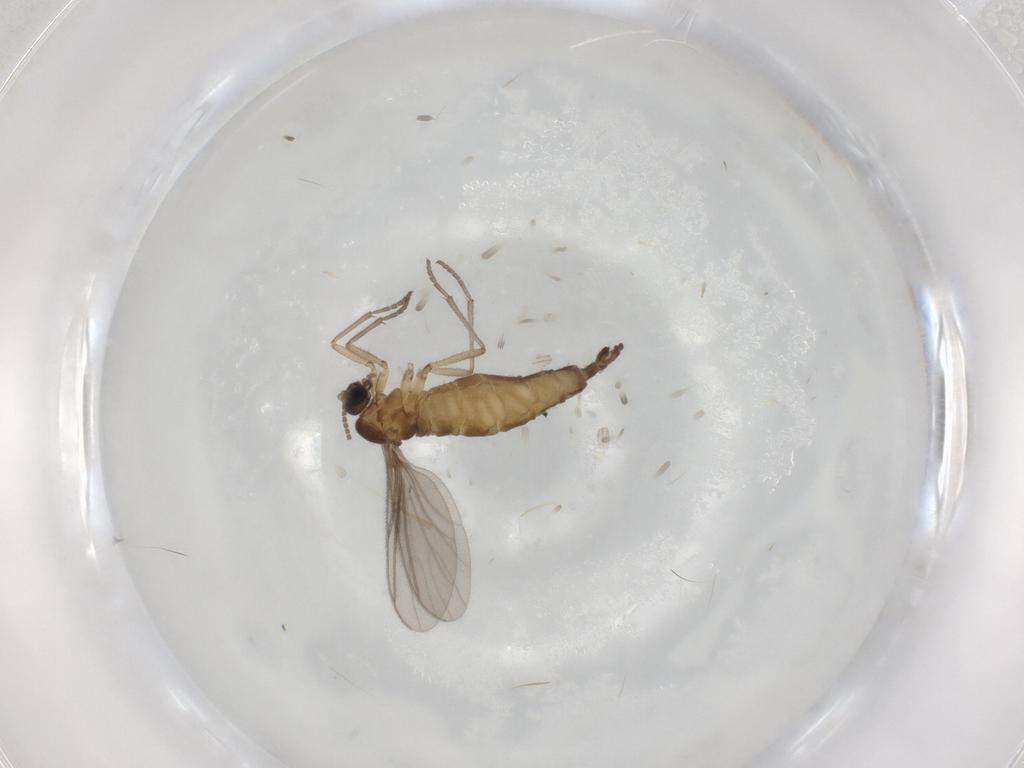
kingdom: Animalia
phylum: Arthropoda
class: Insecta
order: Diptera
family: Sciaridae
